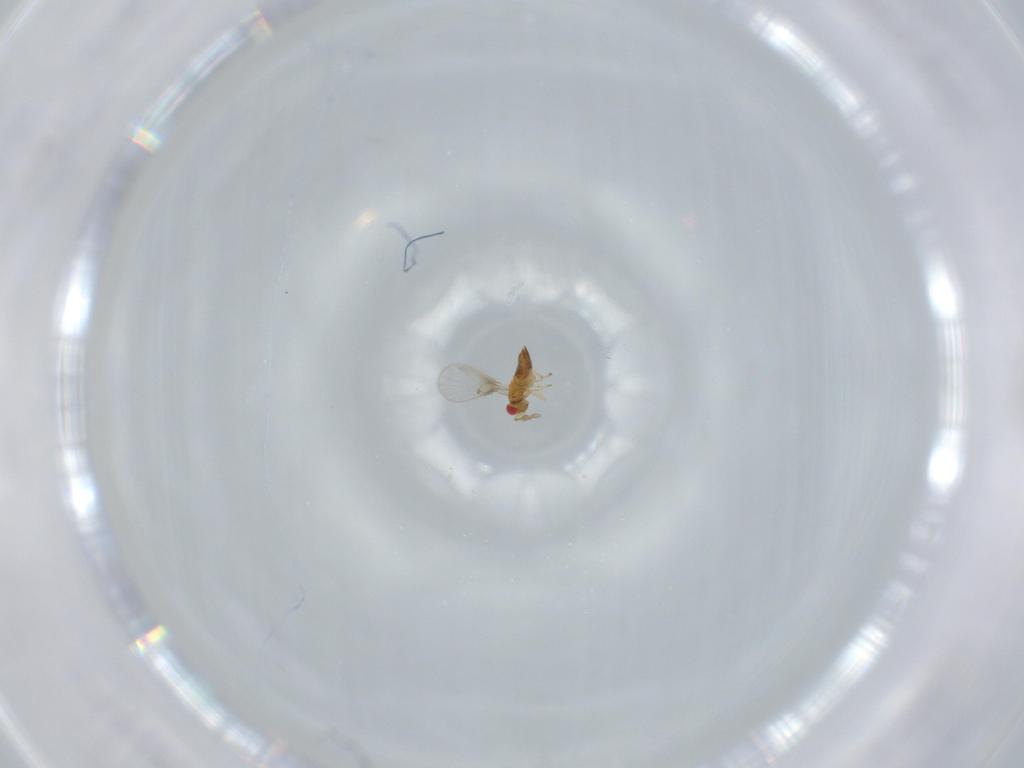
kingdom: Animalia
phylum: Arthropoda
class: Insecta
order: Hymenoptera
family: Trichogrammatidae
